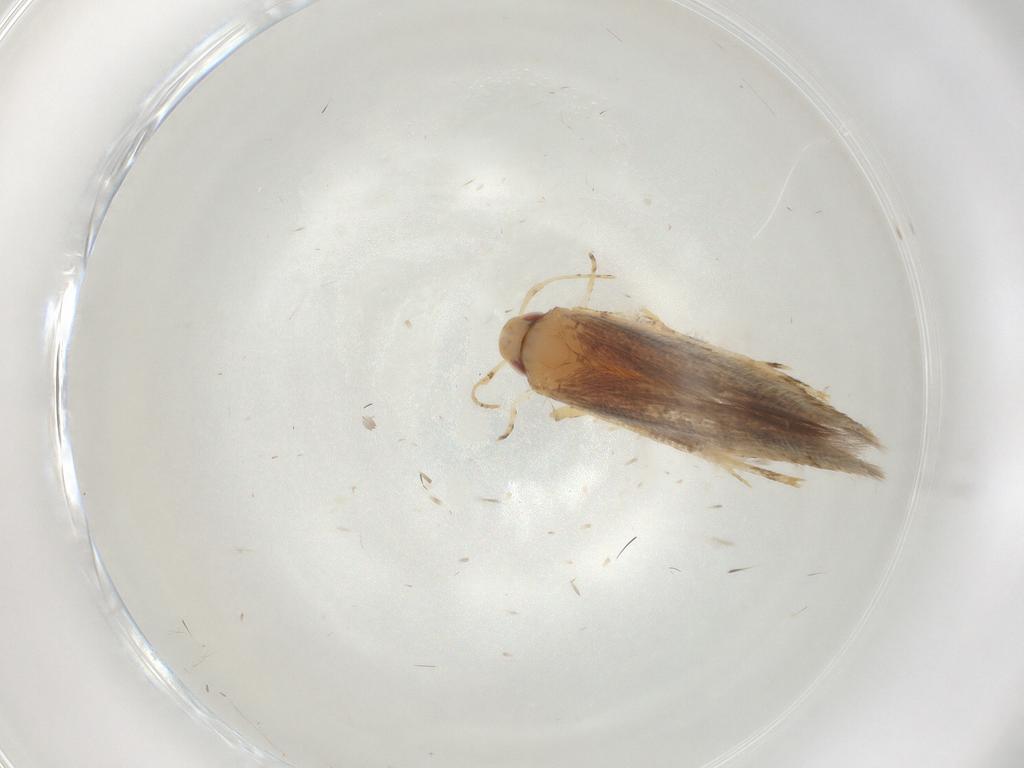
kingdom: Animalia
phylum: Arthropoda
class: Insecta
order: Lepidoptera
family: Cosmopterigidae
